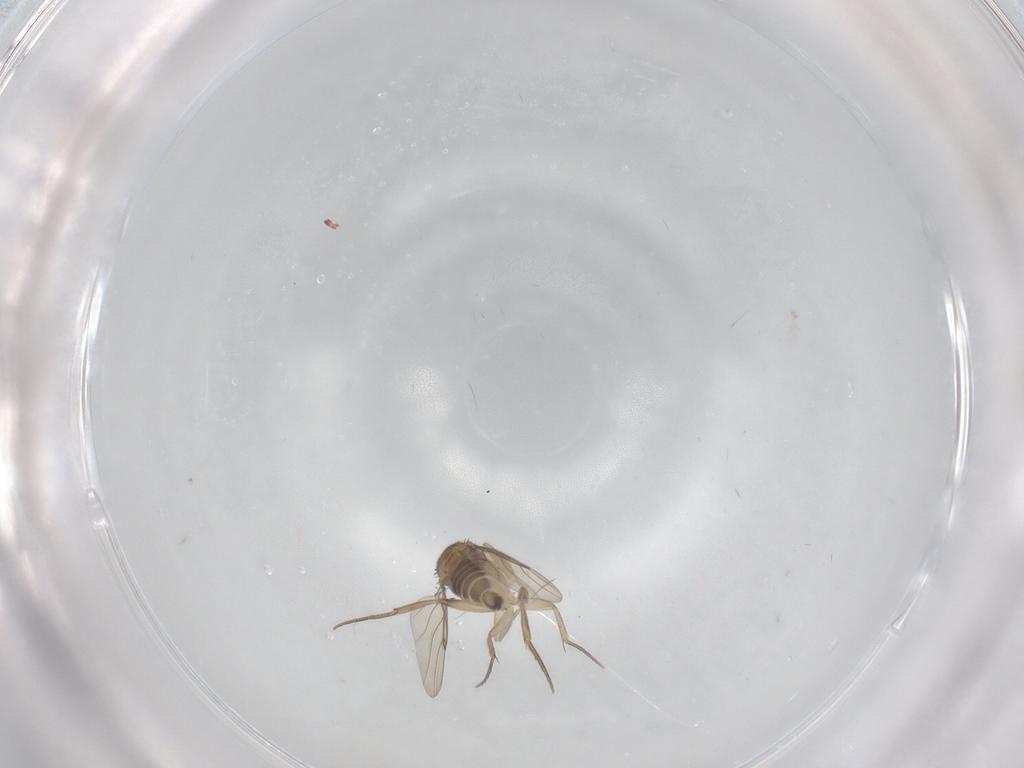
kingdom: Animalia
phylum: Arthropoda
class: Insecta
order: Diptera
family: Phoridae
